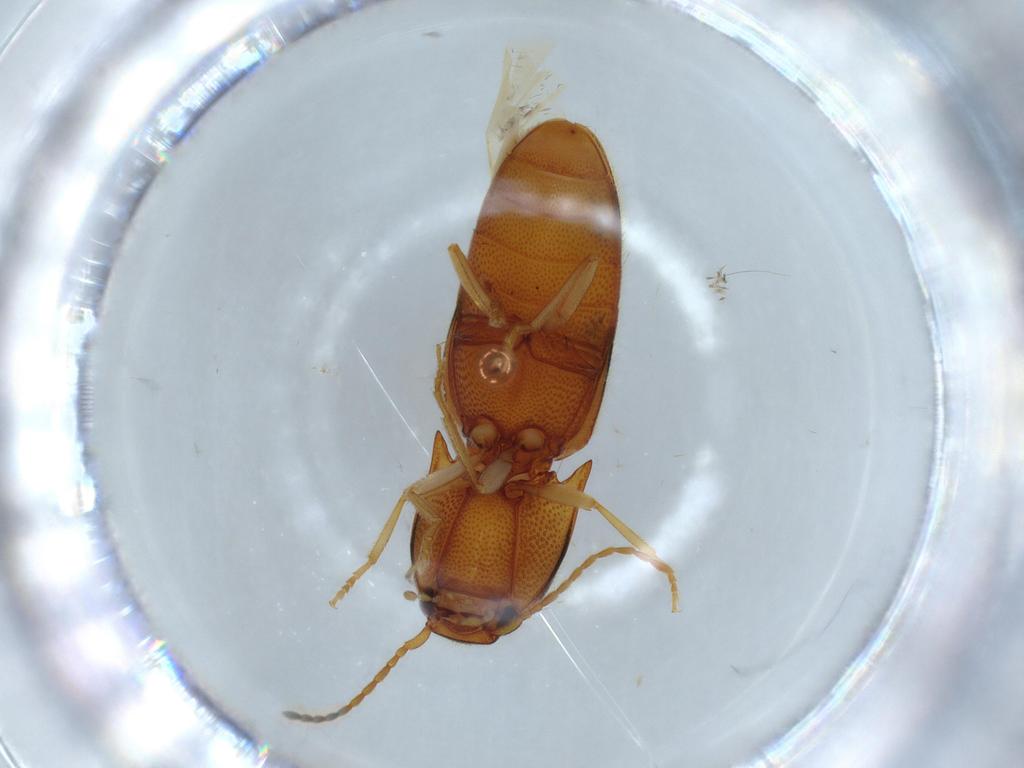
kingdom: Animalia
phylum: Arthropoda
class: Insecta
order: Coleoptera
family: Elateridae
